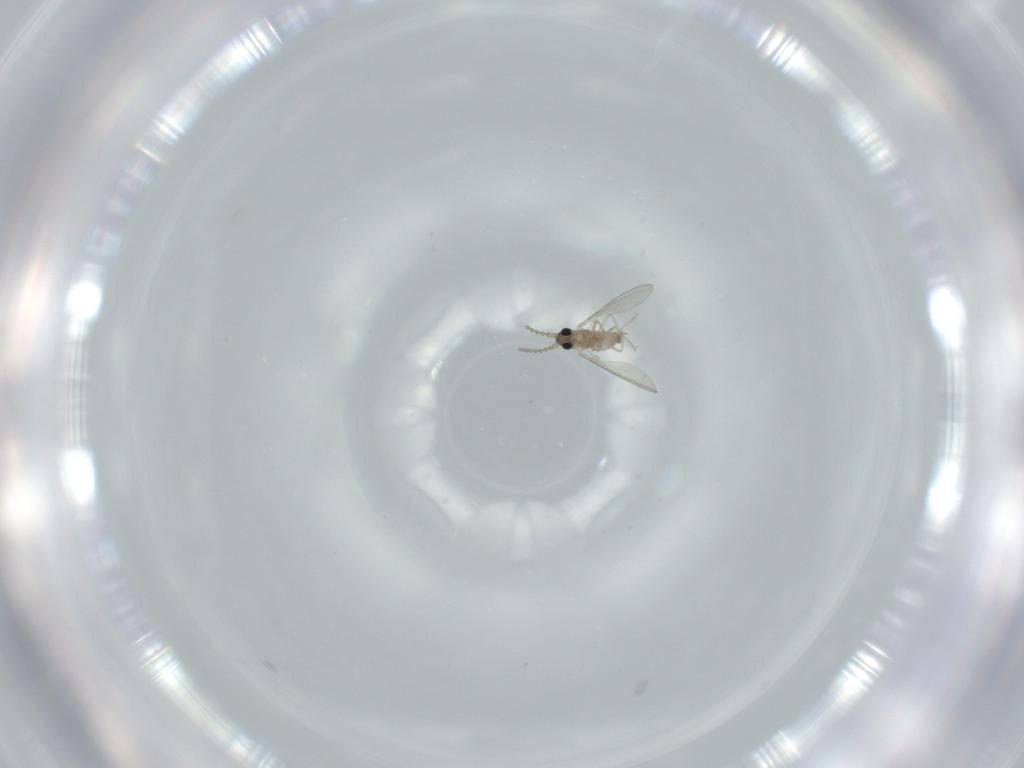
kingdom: Animalia
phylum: Arthropoda
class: Insecta
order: Diptera
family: Cecidomyiidae
